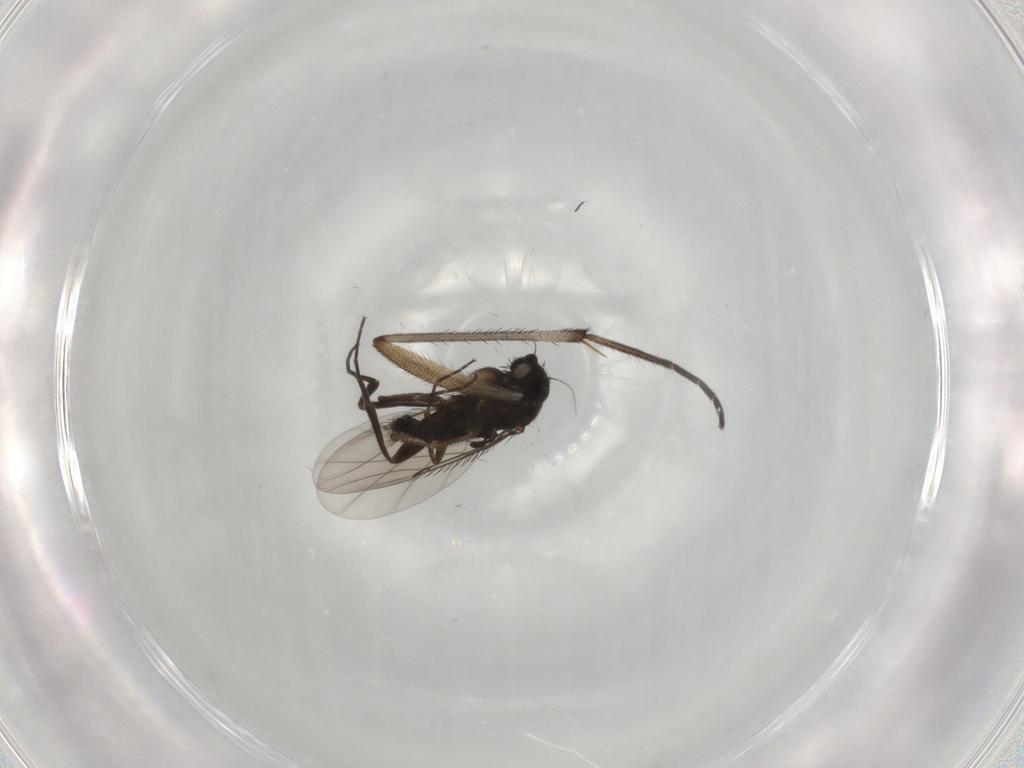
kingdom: Animalia
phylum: Arthropoda
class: Insecta
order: Diptera
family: Phoridae
